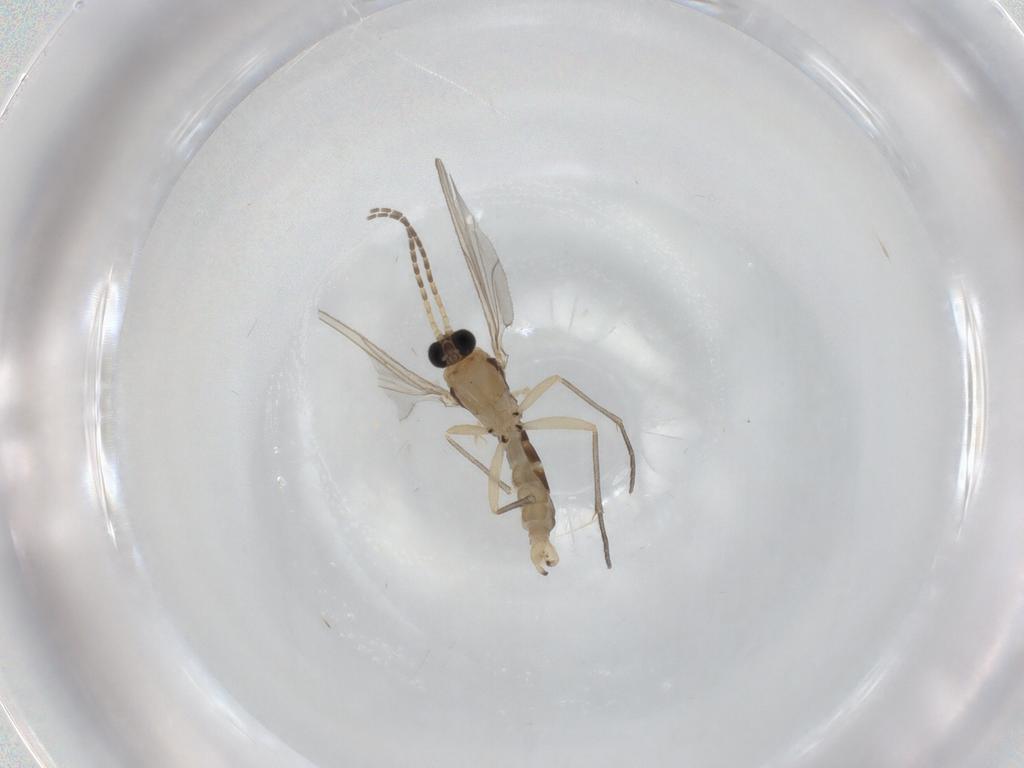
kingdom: Animalia
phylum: Arthropoda
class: Insecta
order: Diptera
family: Sciaridae
